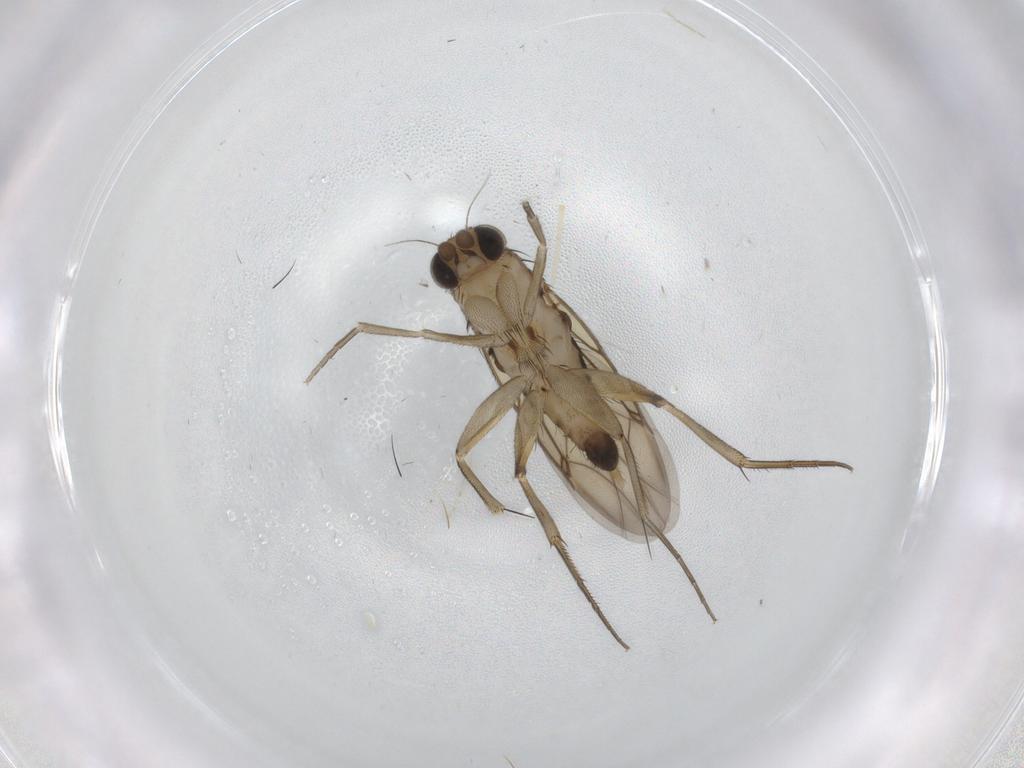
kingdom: Animalia
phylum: Arthropoda
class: Insecta
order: Diptera
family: Phoridae
